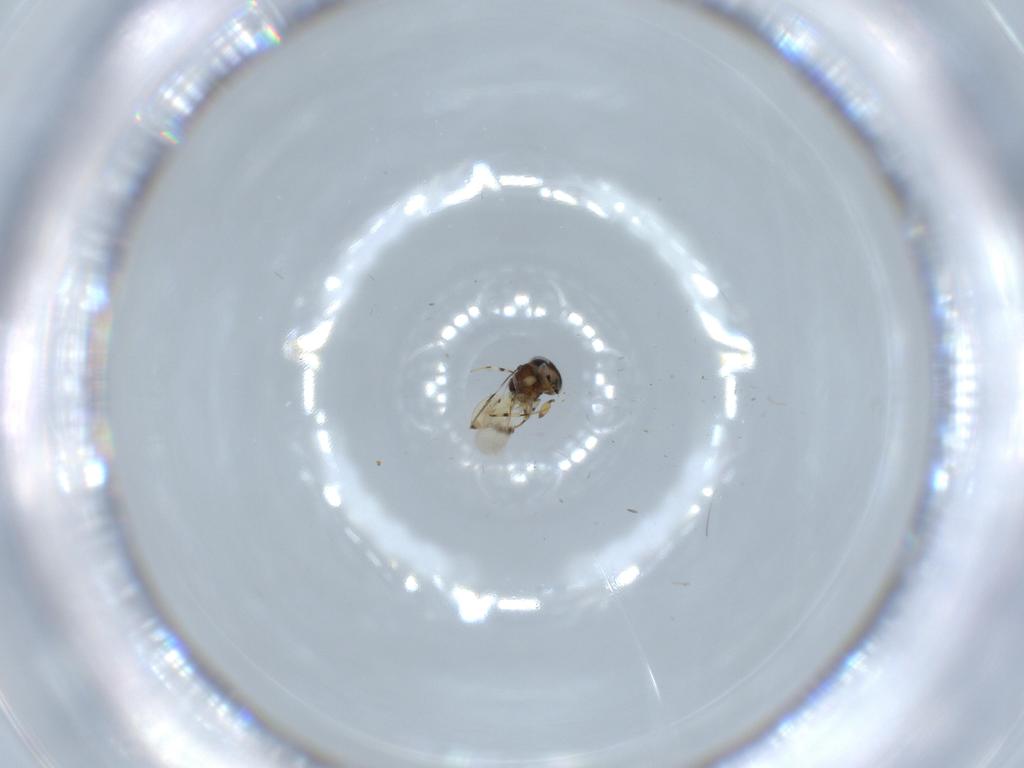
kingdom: Animalia
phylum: Arthropoda
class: Insecta
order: Hymenoptera
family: Scelionidae
